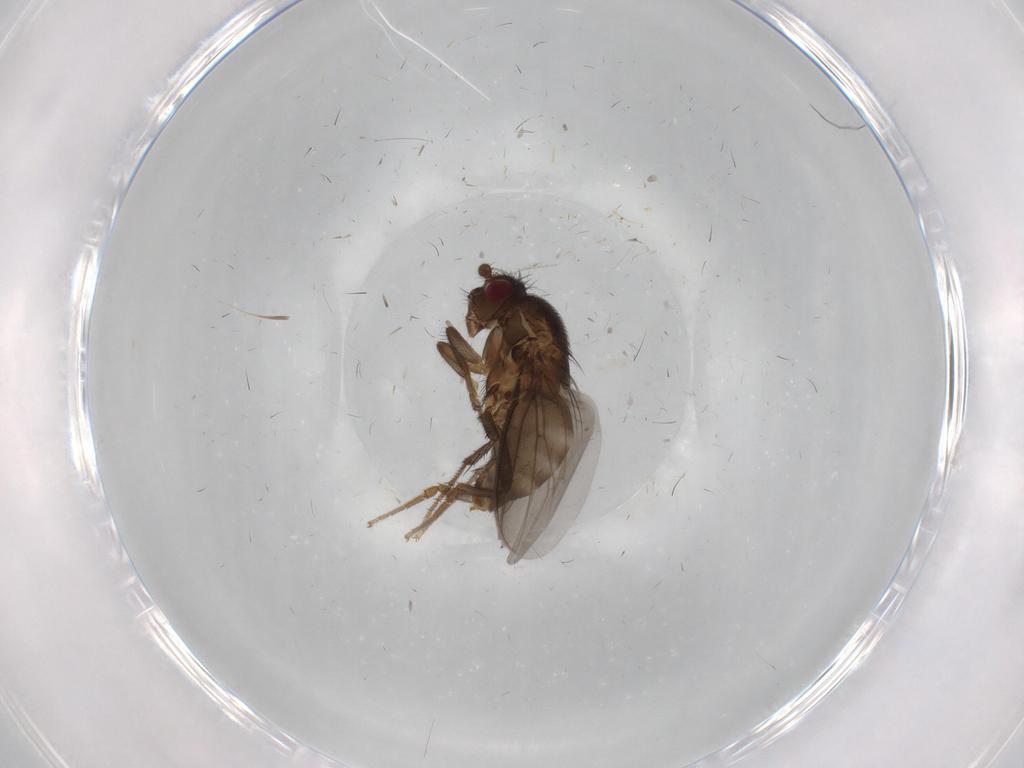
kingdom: Animalia
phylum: Arthropoda
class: Insecta
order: Diptera
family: Sphaeroceridae
